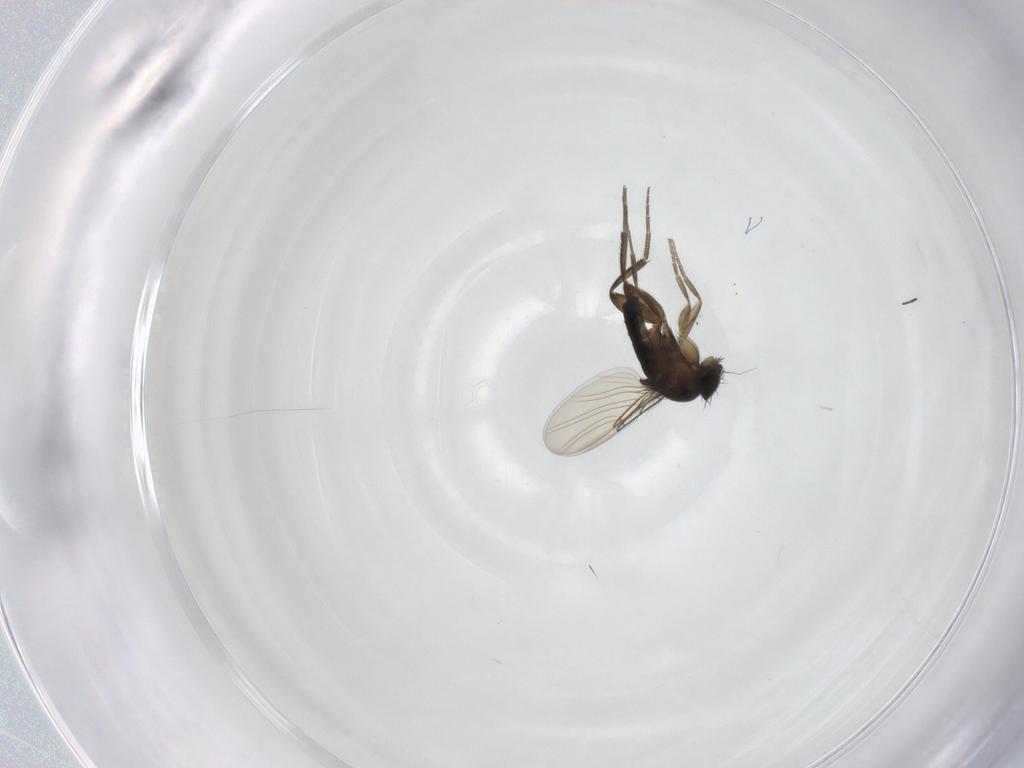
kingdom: Animalia
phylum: Arthropoda
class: Insecta
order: Diptera
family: Phoridae
